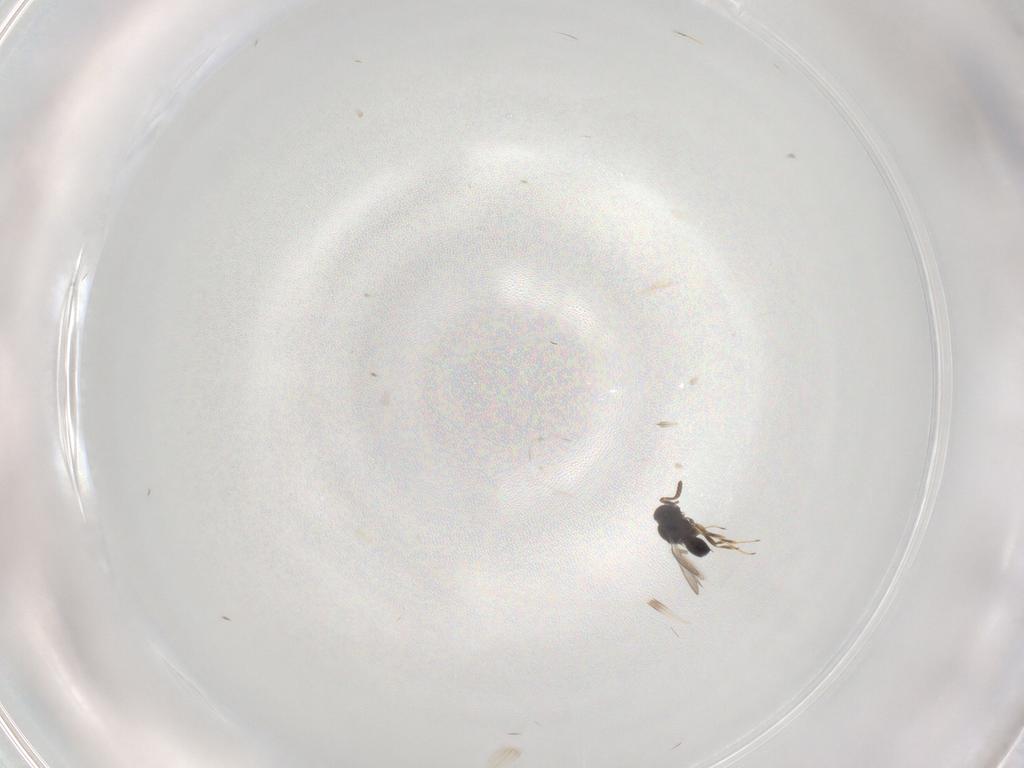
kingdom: Animalia
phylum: Arthropoda
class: Insecta
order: Hymenoptera
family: Scelionidae
